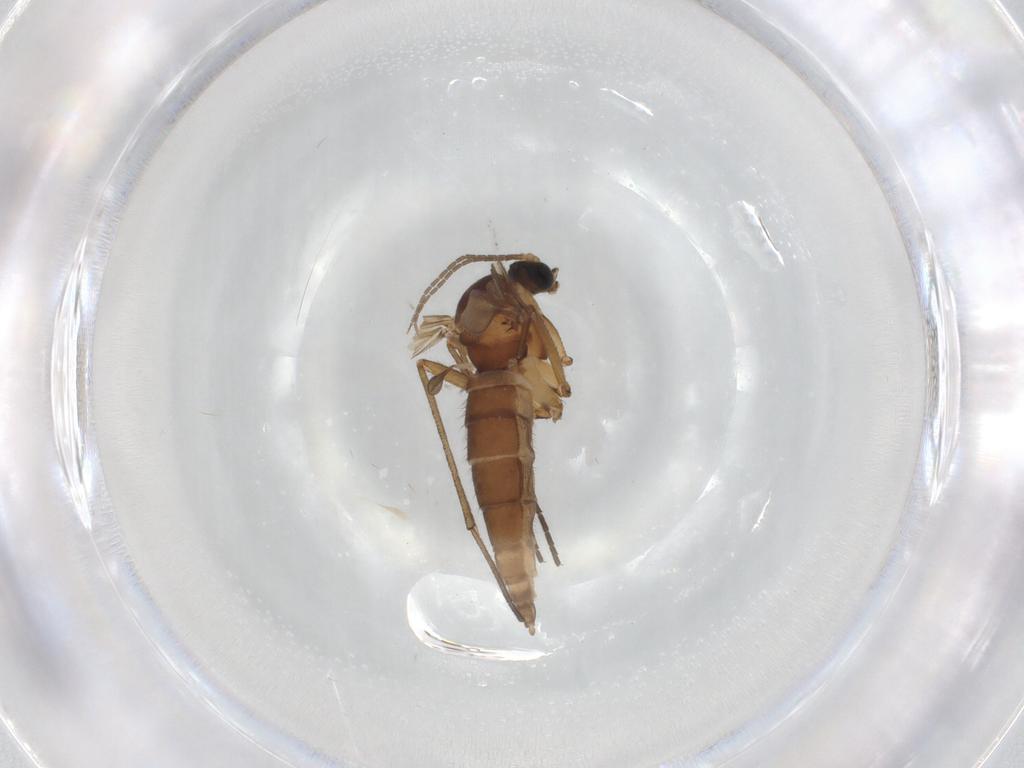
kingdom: Animalia
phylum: Arthropoda
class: Insecta
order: Diptera
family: Sciaridae
